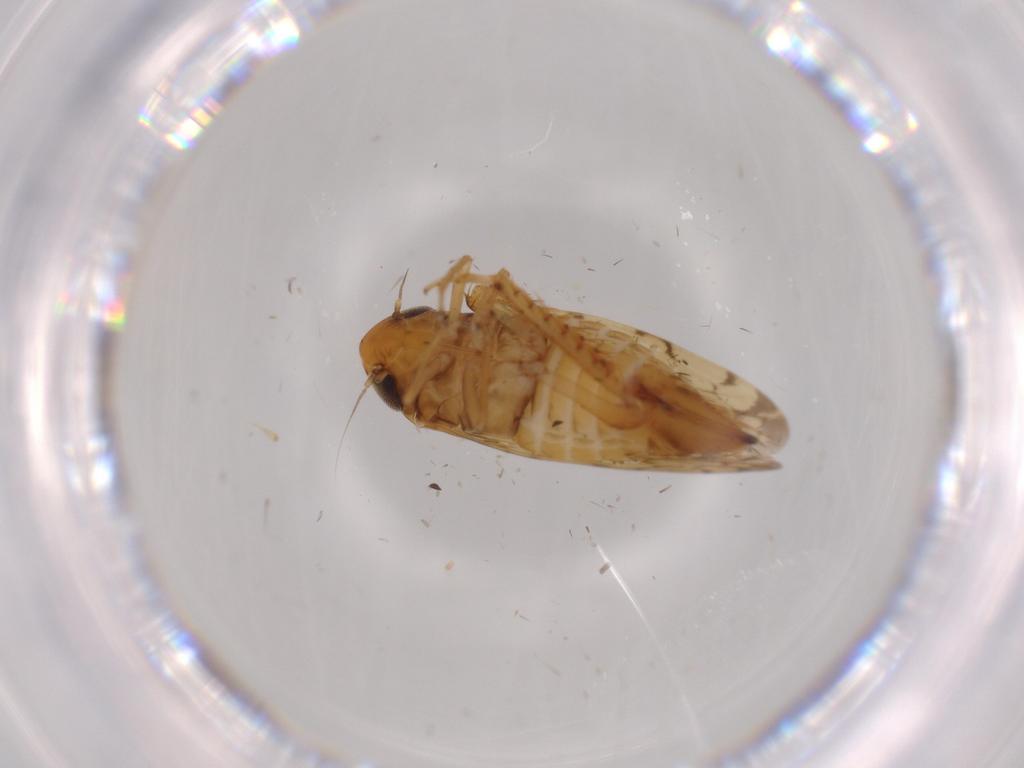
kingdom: Animalia
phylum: Arthropoda
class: Insecta
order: Hemiptera
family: Cicadellidae
